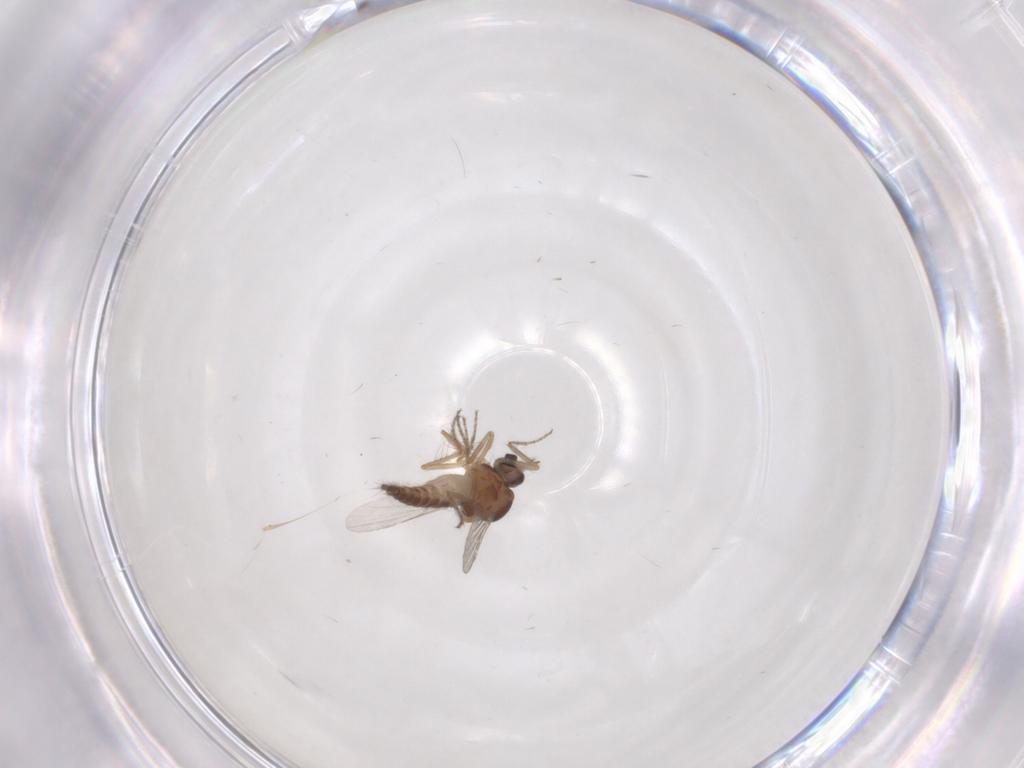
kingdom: Animalia
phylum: Arthropoda
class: Insecta
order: Diptera
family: Ceratopogonidae
